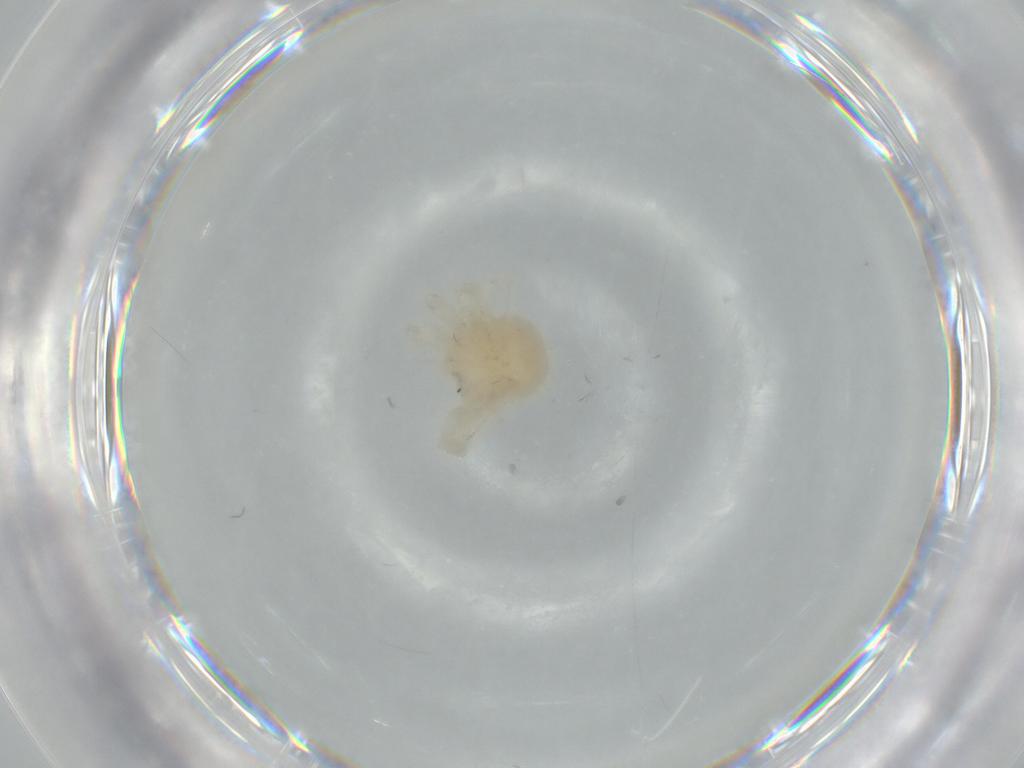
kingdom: Animalia
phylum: Arthropoda
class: Arachnida
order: Trombidiformes
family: Anystidae
